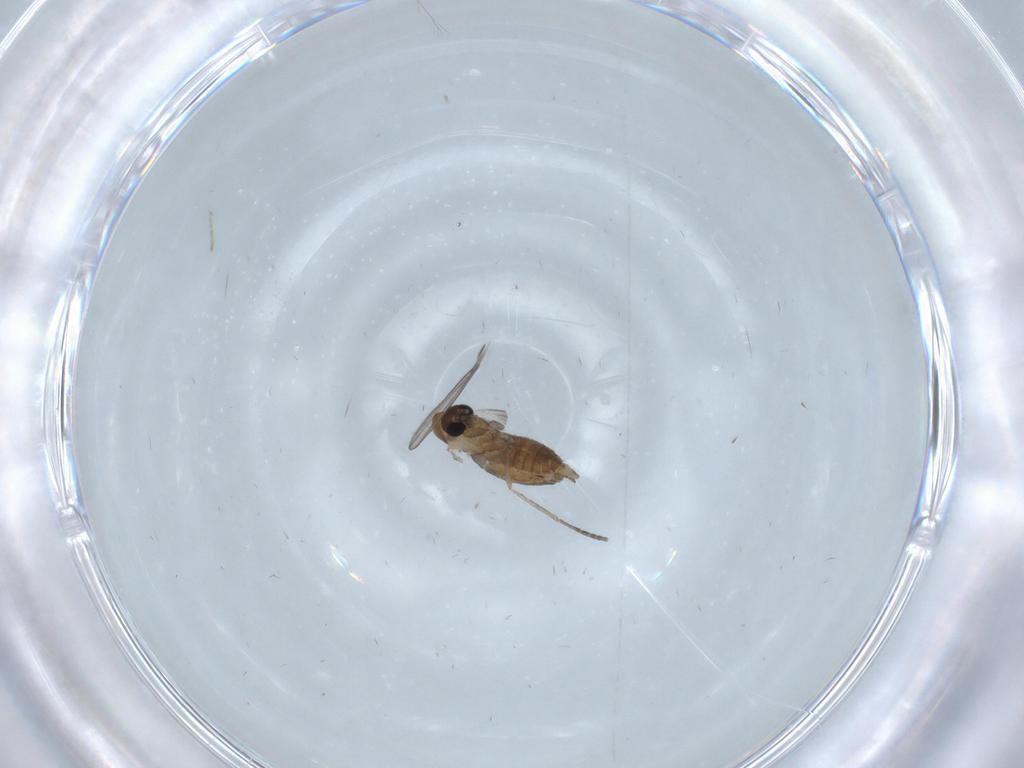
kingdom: Animalia
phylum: Arthropoda
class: Insecta
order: Diptera
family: Psychodidae
